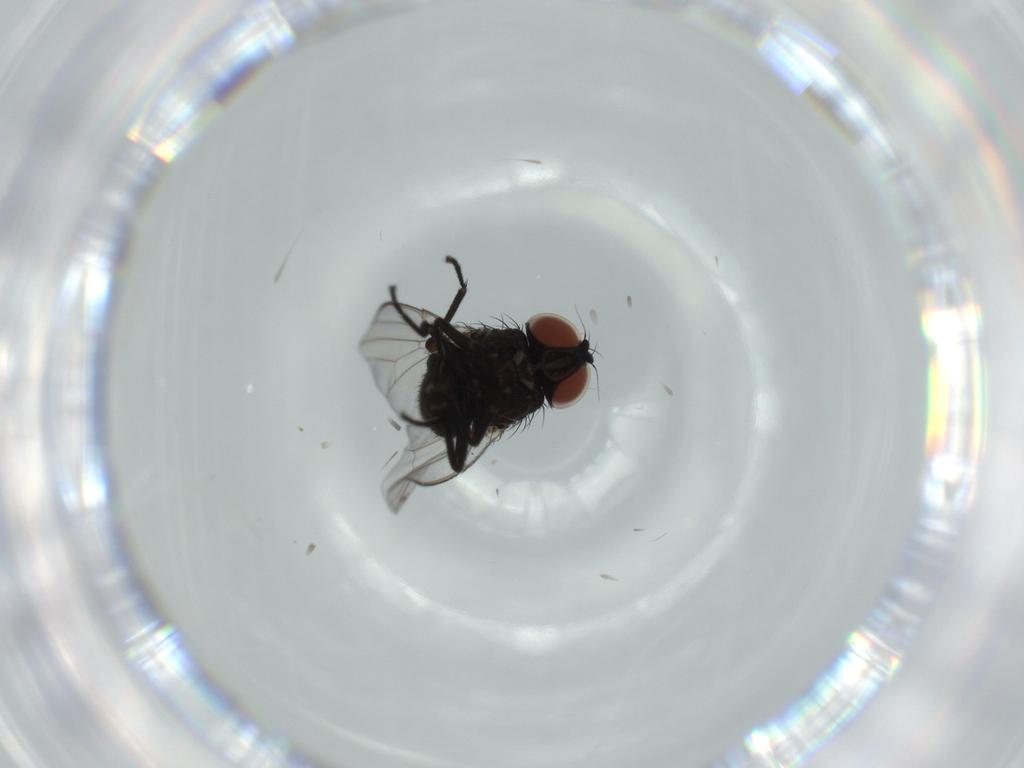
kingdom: Animalia
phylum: Arthropoda
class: Insecta
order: Diptera
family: Milichiidae
